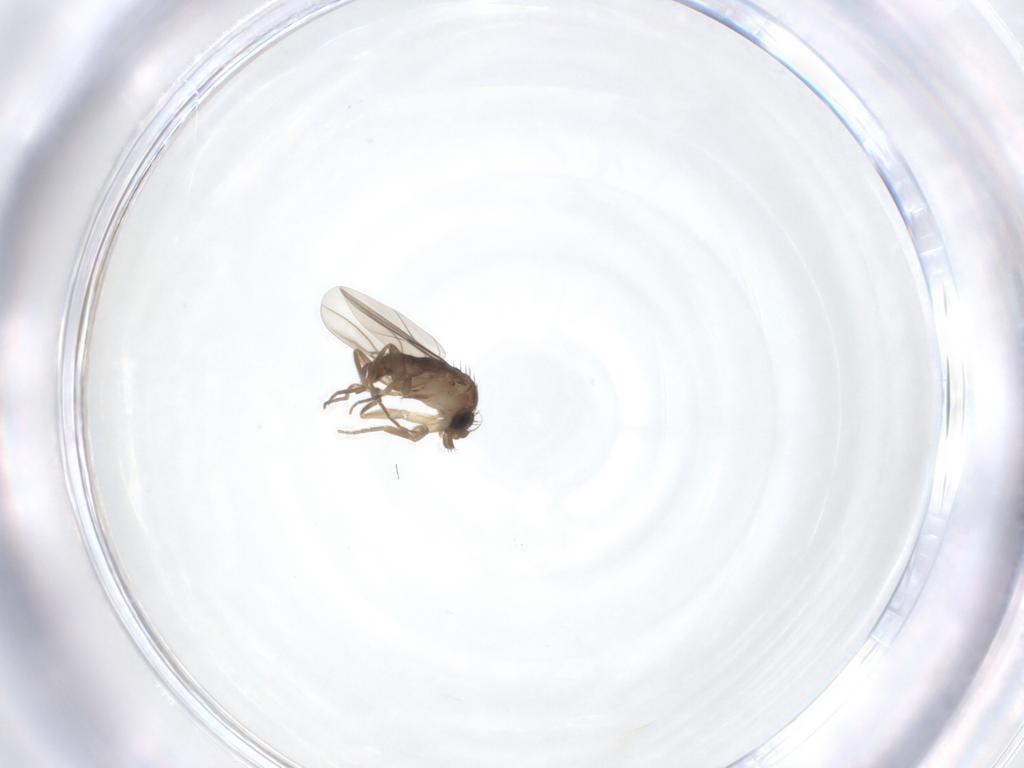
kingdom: Animalia
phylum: Arthropoda
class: Insecta
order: Diptera
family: Phoridae
